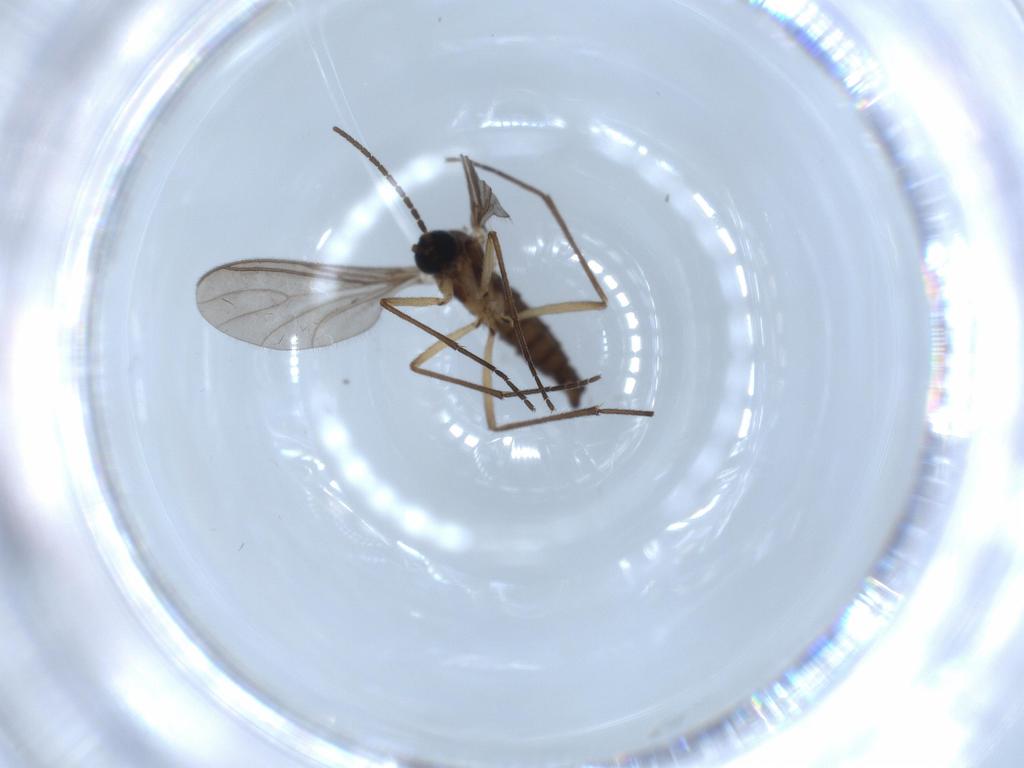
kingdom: Animalia
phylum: Arthropoda
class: Insecta
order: Diptera
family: Sciaridae
